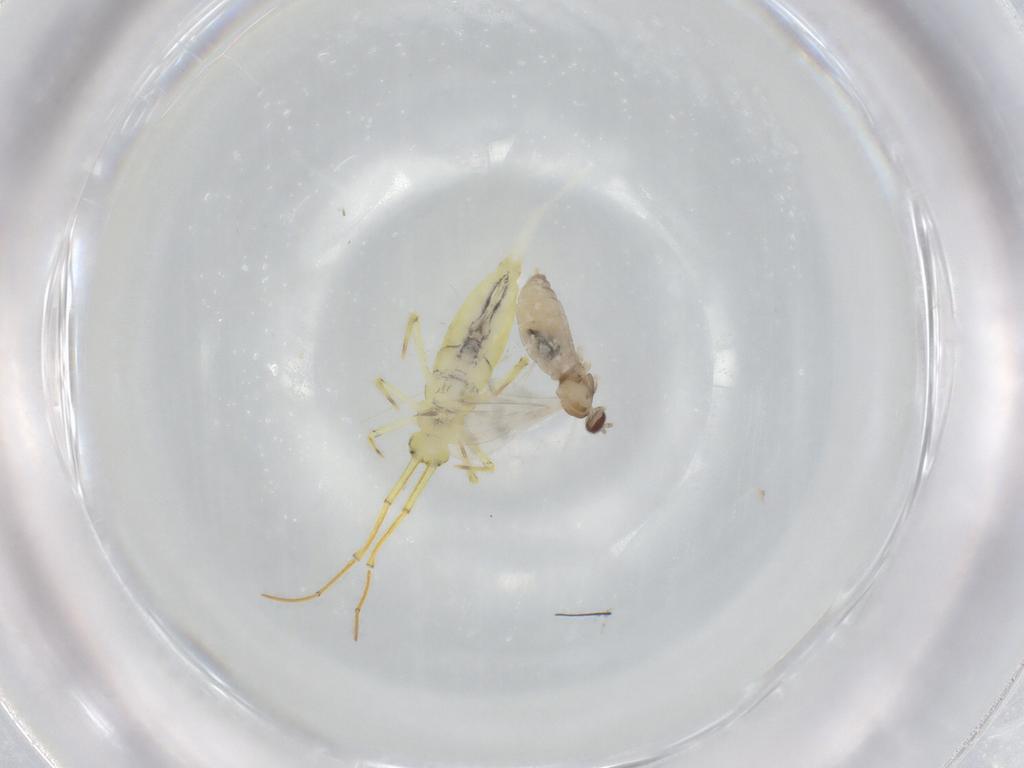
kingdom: Animalia
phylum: Arthropoda
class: Insecta
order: Diptera
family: Cecidomyiidae
